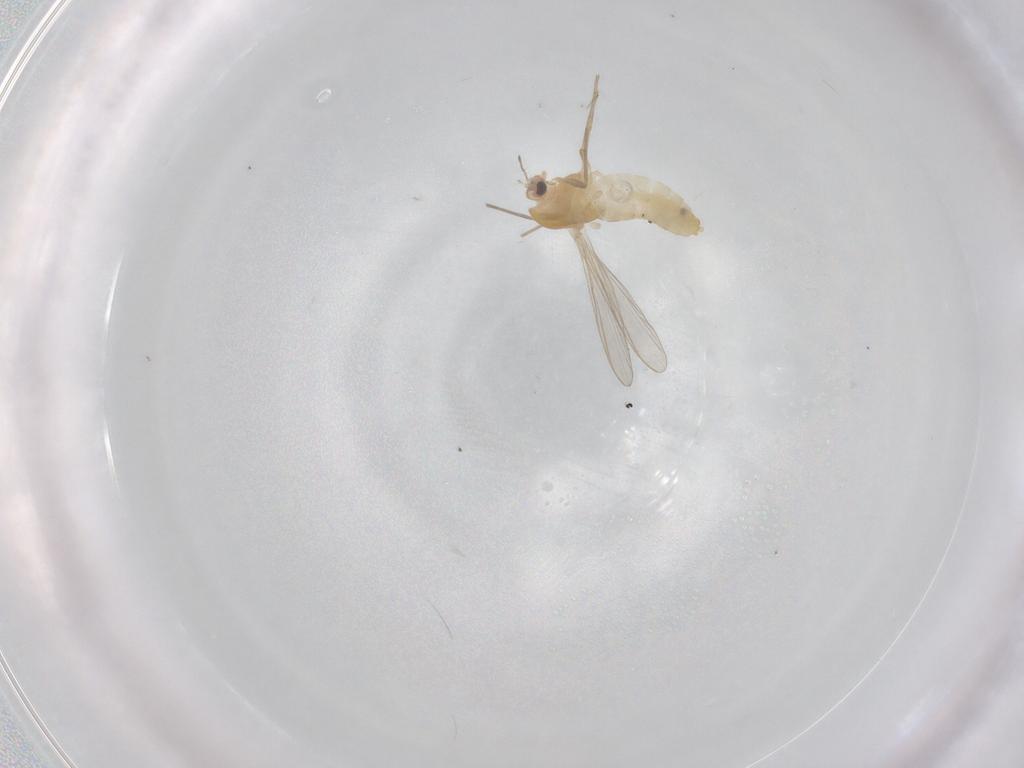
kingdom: Animalia
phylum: Arthropoda
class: Insecta
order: Diptera
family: Chironomidae
